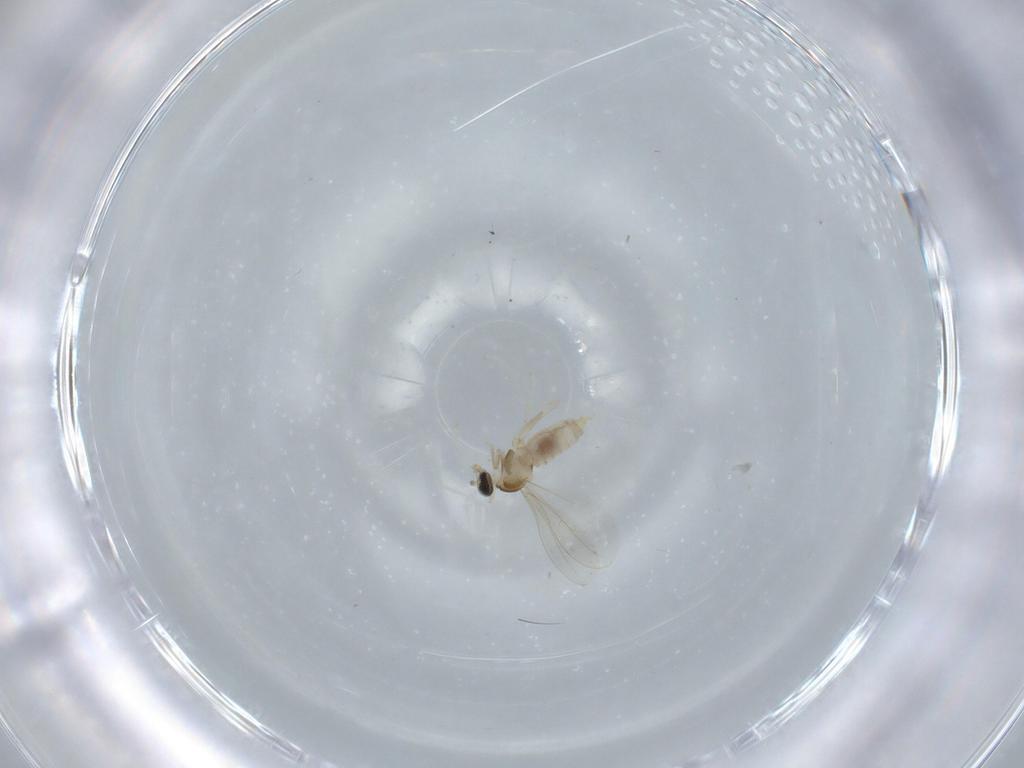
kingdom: Animalia
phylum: Arthropoda
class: Insecta
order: Diptera
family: Cecidomyiidae
